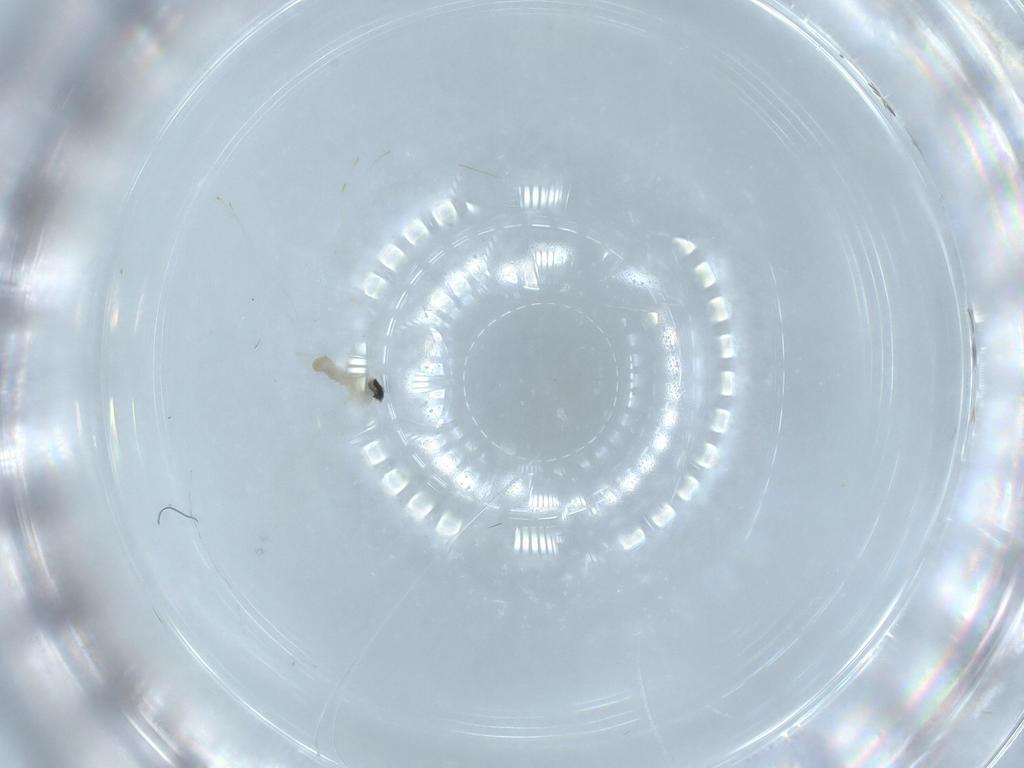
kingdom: Animalia
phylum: Arthropoda
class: Insecta
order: Diptera
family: Cecidomyiidae
